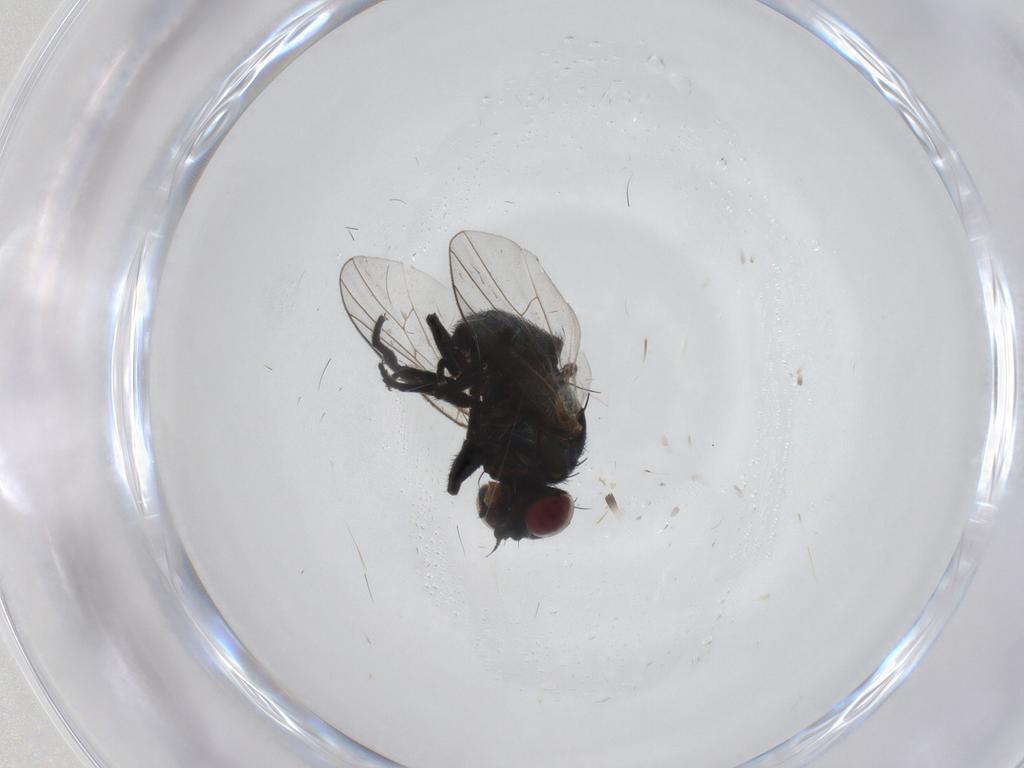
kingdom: Animalia
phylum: Arthropoda
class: Insecta
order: Diptera
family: Agromyzidae
